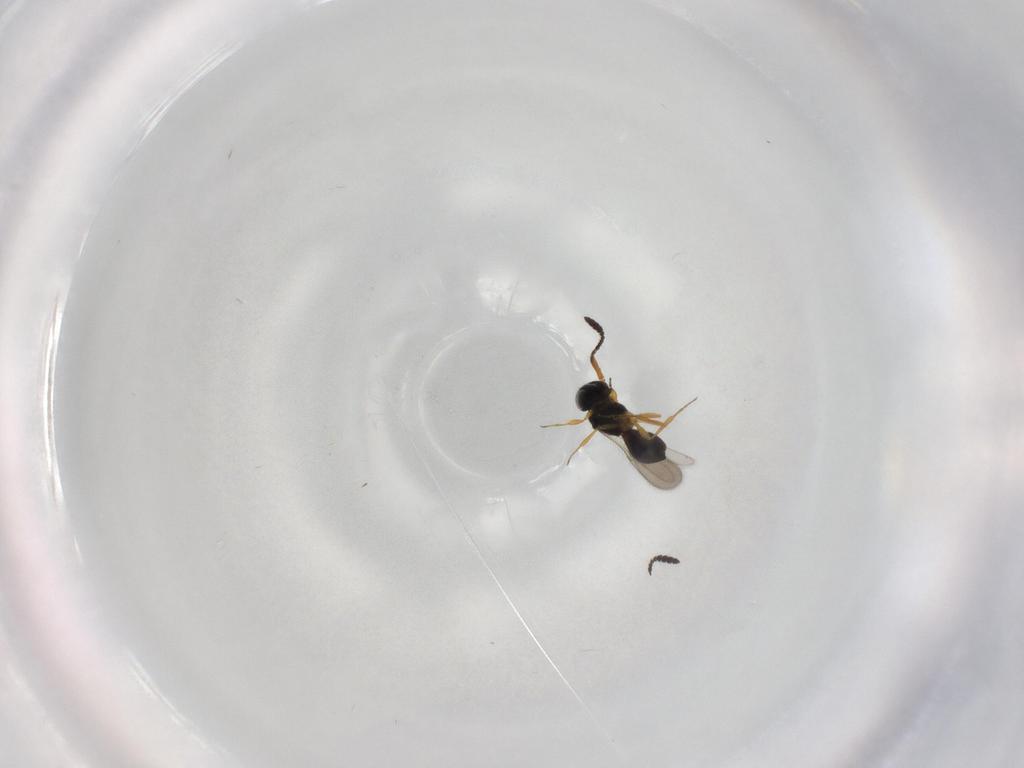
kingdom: Animalia
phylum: Arthropoda
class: Insecta
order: Hymenoptera
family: Scelionidae
